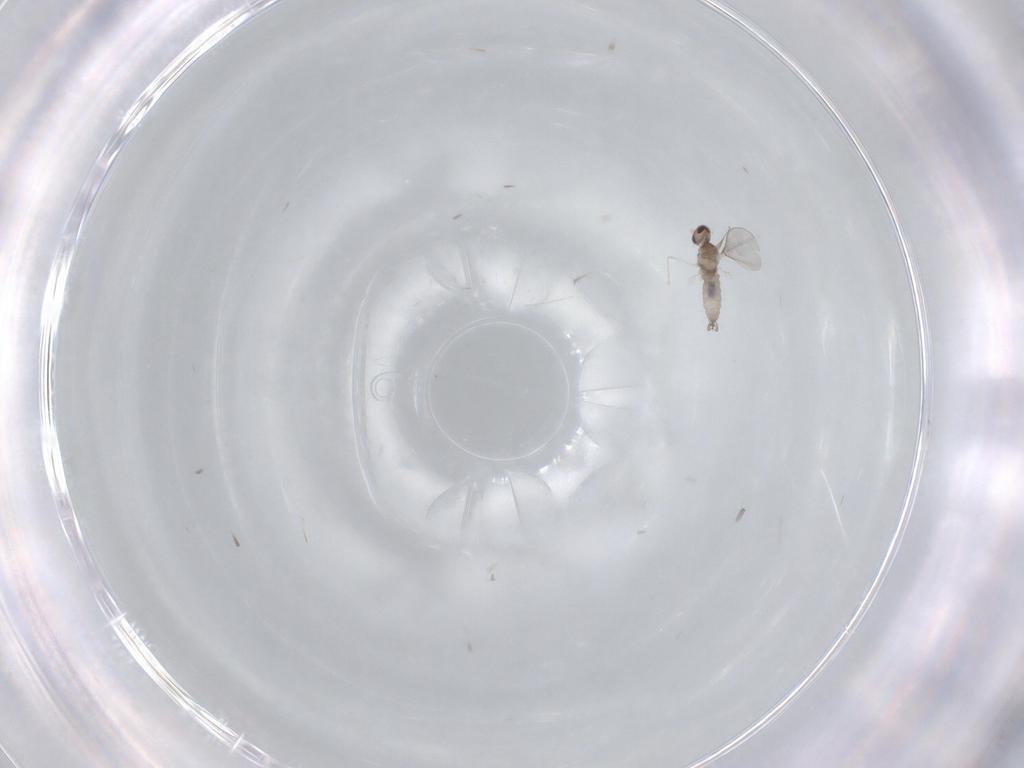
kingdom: Animalia
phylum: Arthropoda
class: Insecta
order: Diptera
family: Cecidomyiidae
